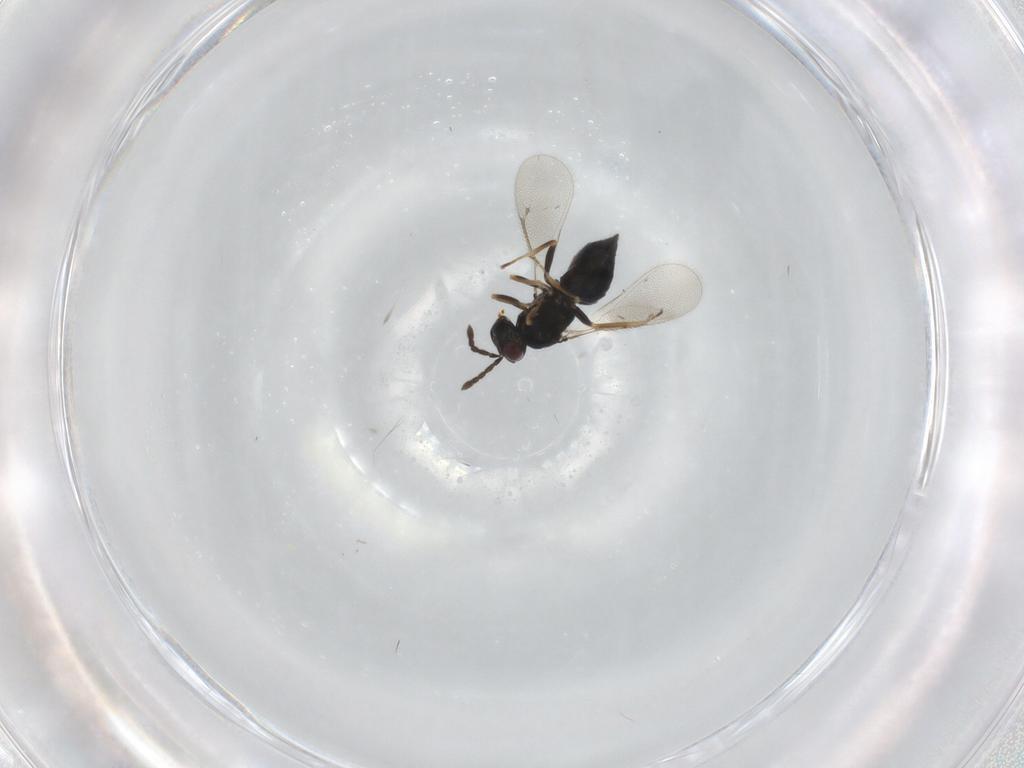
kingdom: Animalia
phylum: Arthropoda
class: Insecta
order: Hymenoptera
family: Eulophidae
